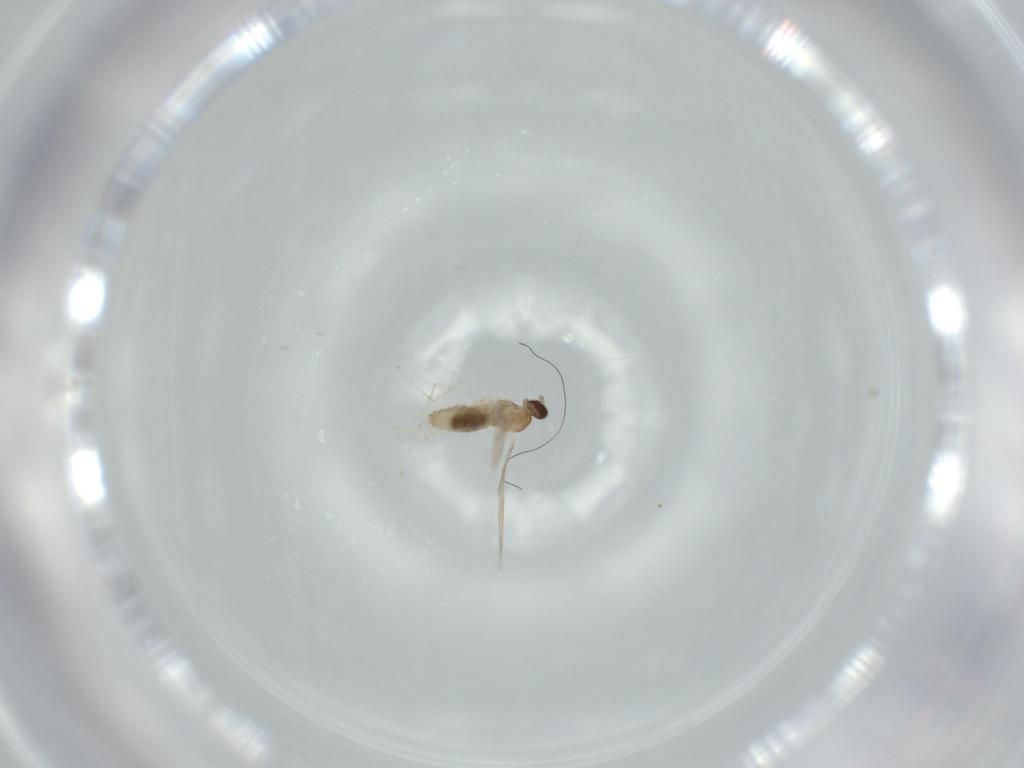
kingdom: Animalia
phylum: Arthropoda
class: Insecta
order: Diptera
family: Cecidomyiidae
